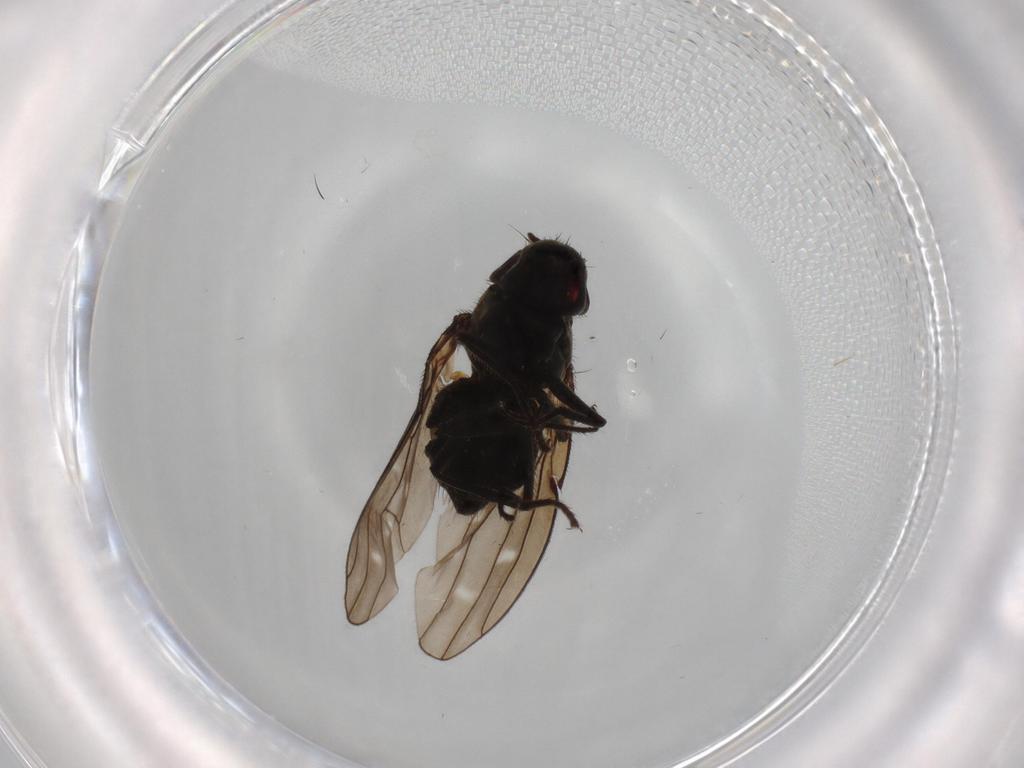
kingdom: Animalia
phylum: Arthropoda
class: Insecta
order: Diptera
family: Ephydridae
